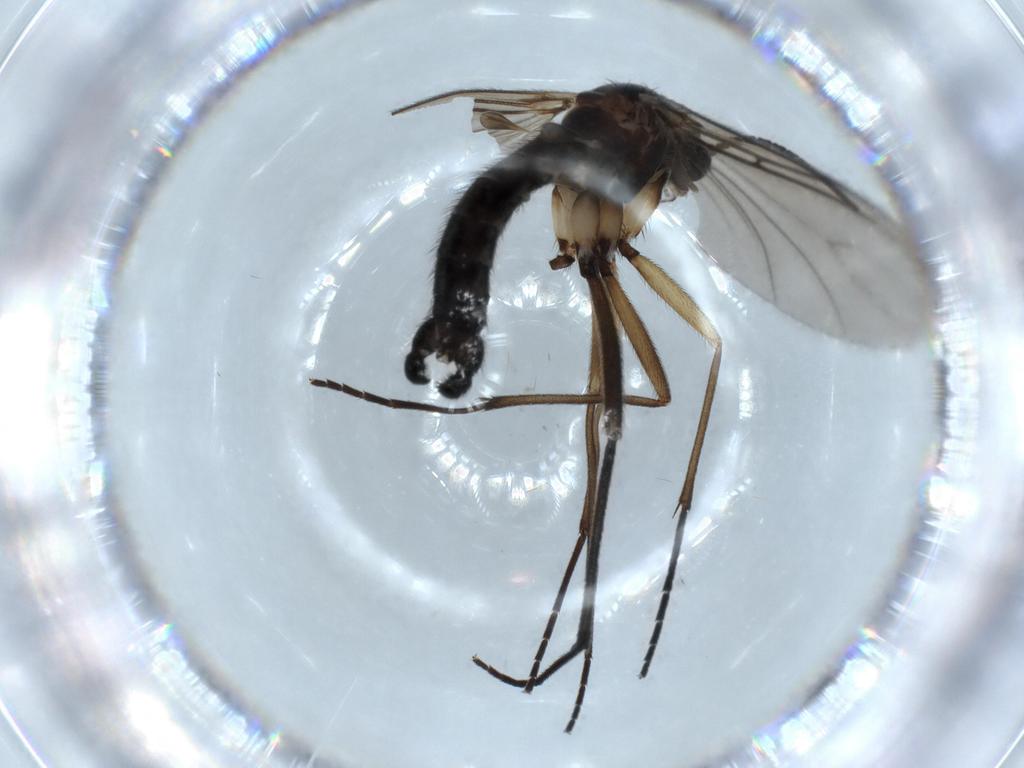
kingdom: Animalia
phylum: Arthropoda
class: Insecta
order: Diptera
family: Sciaridae
